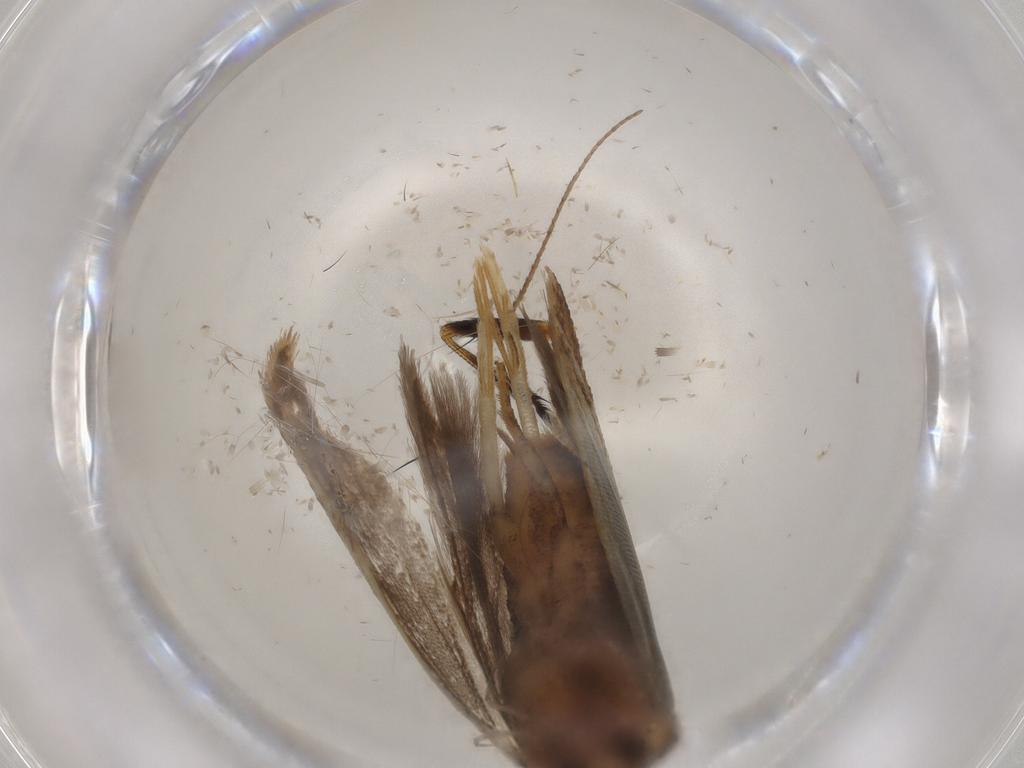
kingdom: Animalia
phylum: Arthropoda
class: Insecta
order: Lepidoptera
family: Gelechiidae
